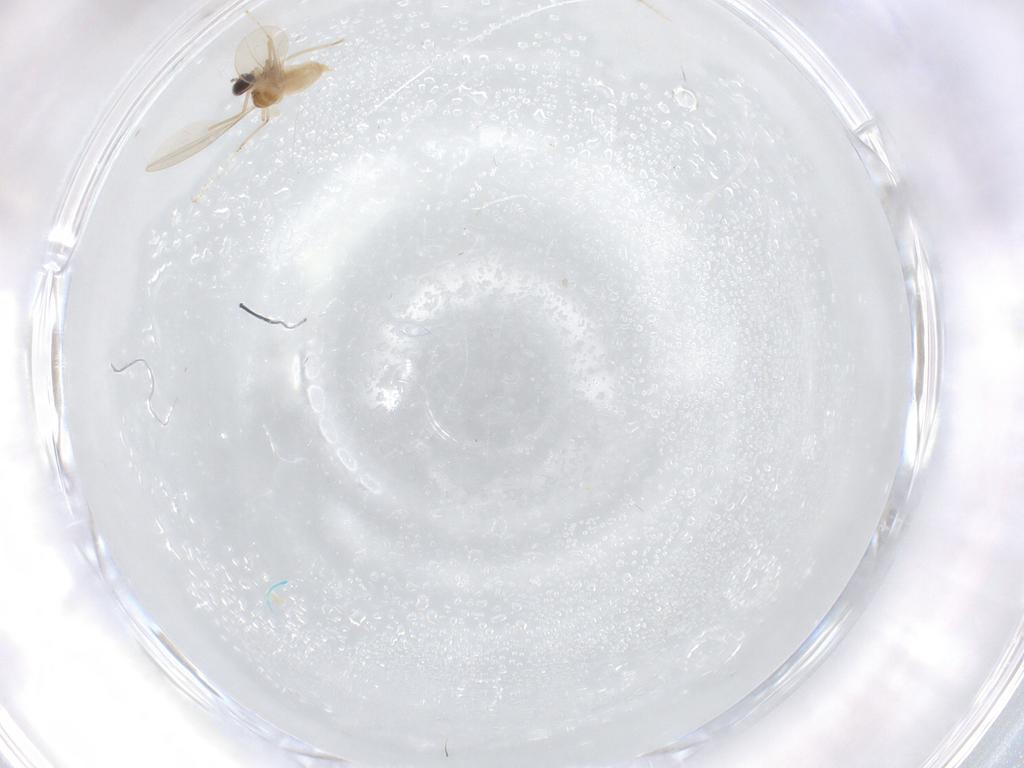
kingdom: Animalia
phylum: Arthropoda
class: Insecta
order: Diptera
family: Cecidomyiidae
